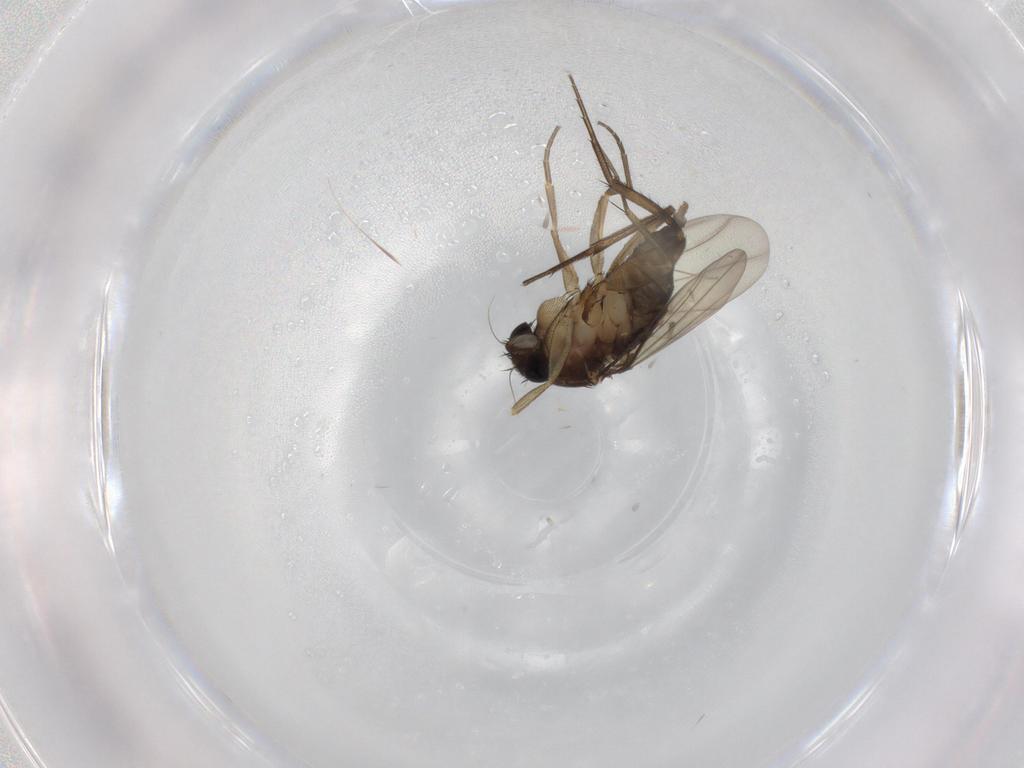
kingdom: Animalia
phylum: Arthropoda
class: Insecta
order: Diptera
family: Phoridae
